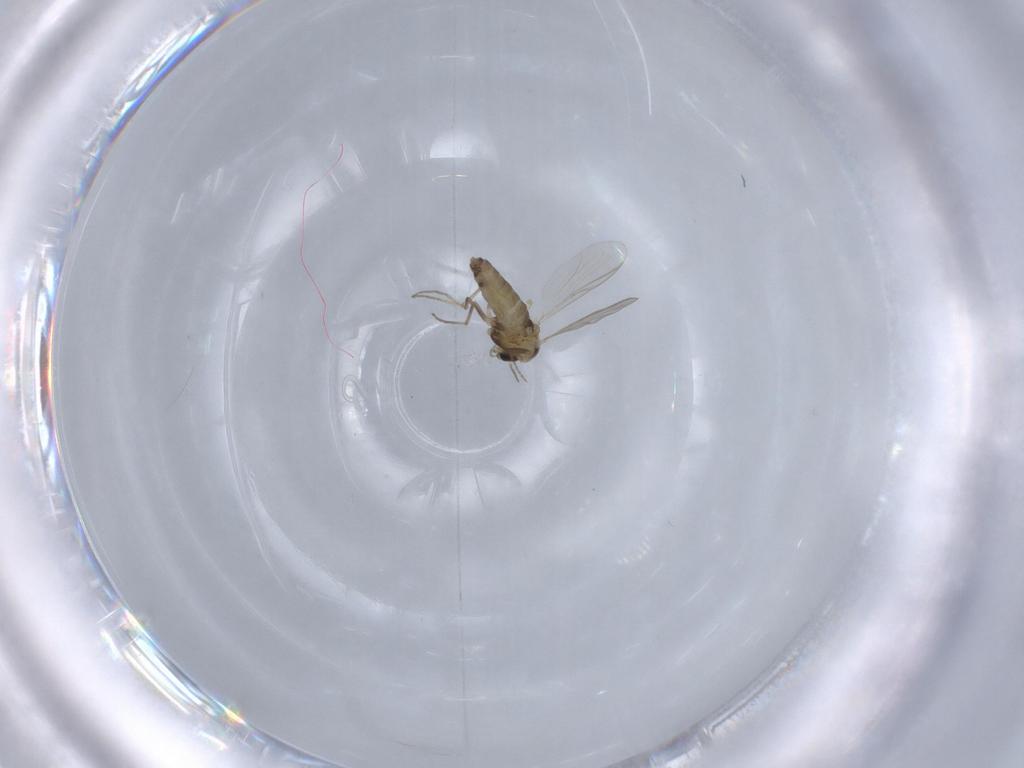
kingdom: Animalia
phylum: Arthropoda
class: Insecta
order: Diptera
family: Chironomidae
